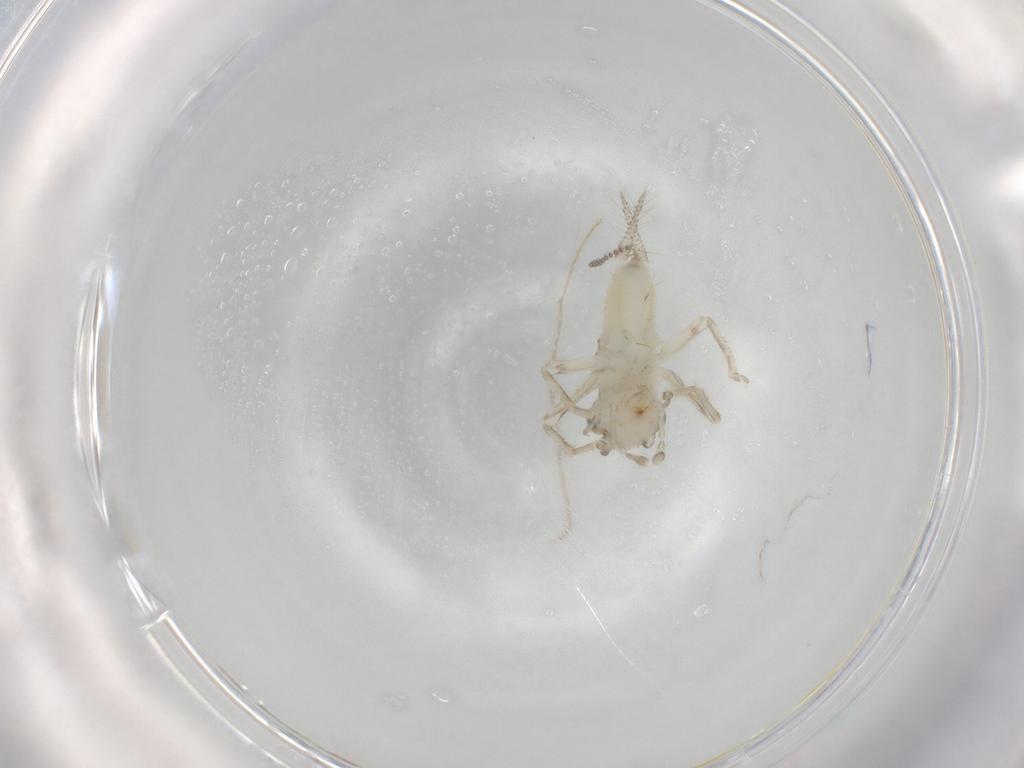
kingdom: Animalia
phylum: Arthropoda
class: Insecta
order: Orthoptera
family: Trigonidiidae
